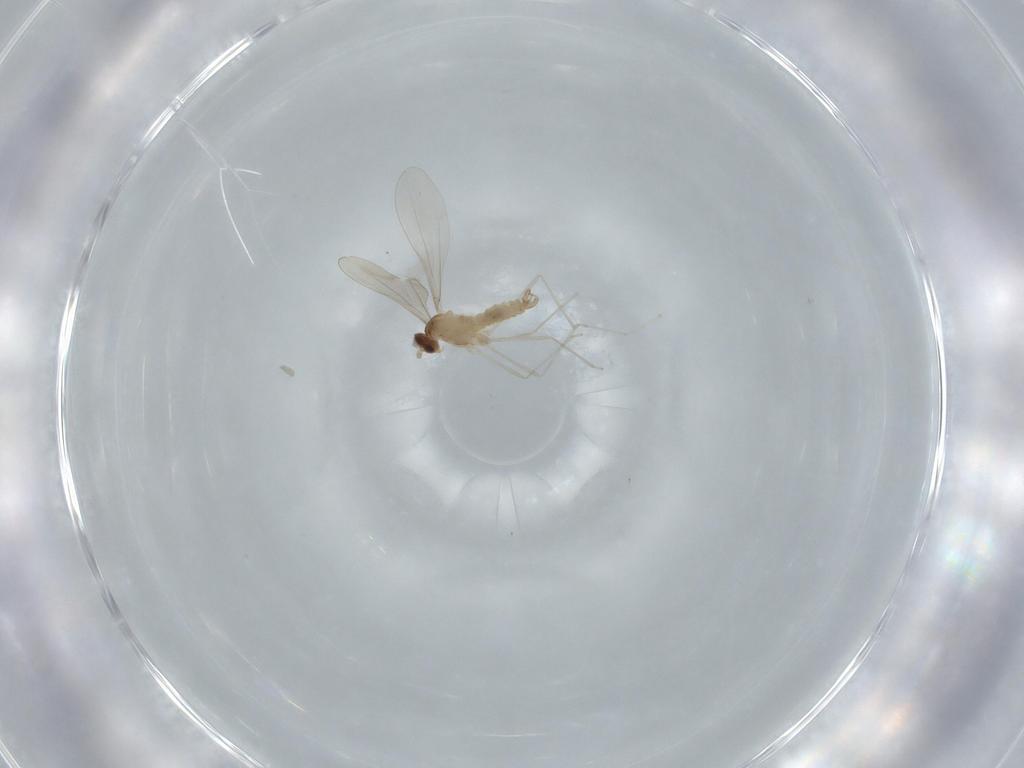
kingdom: Animalia
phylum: Arthropoda
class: Insecta
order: Diptera
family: Cecidomyiidae
